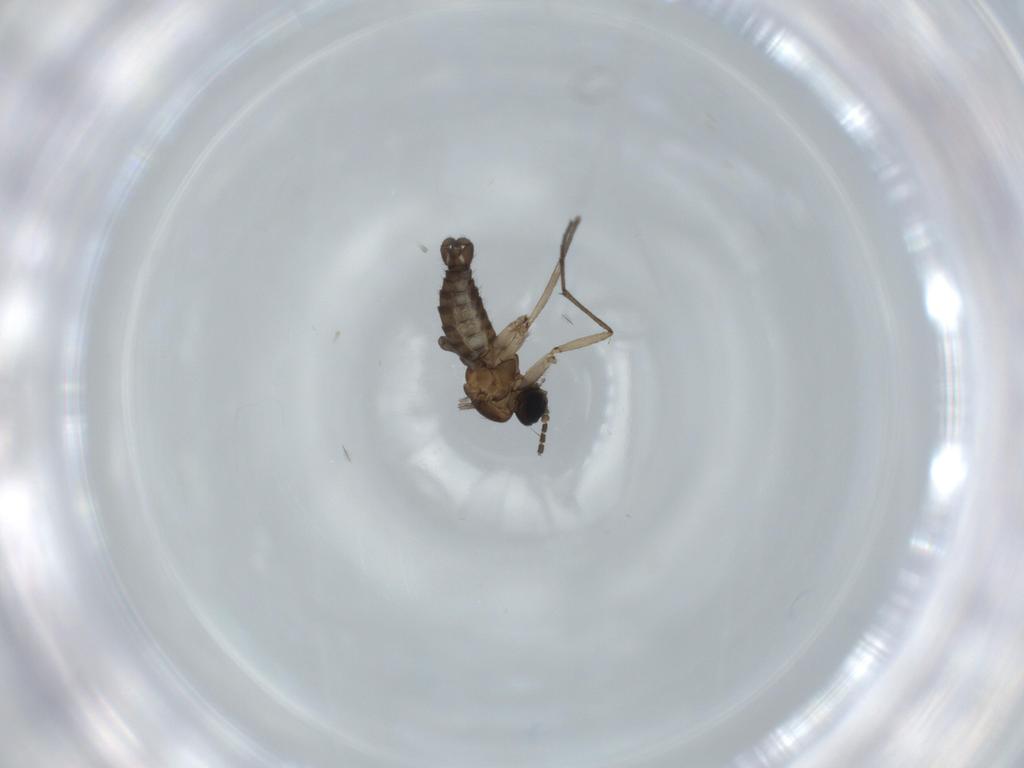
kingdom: Animalia
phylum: Arthropoda
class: Insecta
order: Diptera
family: Sciaridae
